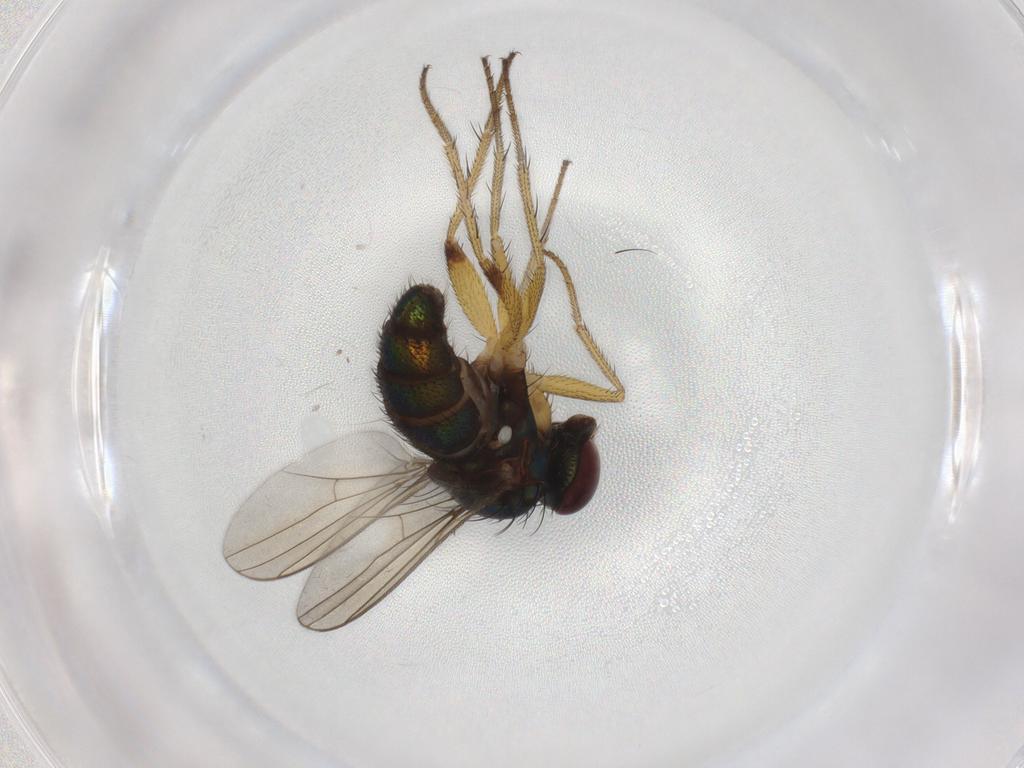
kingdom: Animalia
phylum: Arthropoda
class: Insecta
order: Diptera
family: Dolichopodidae
